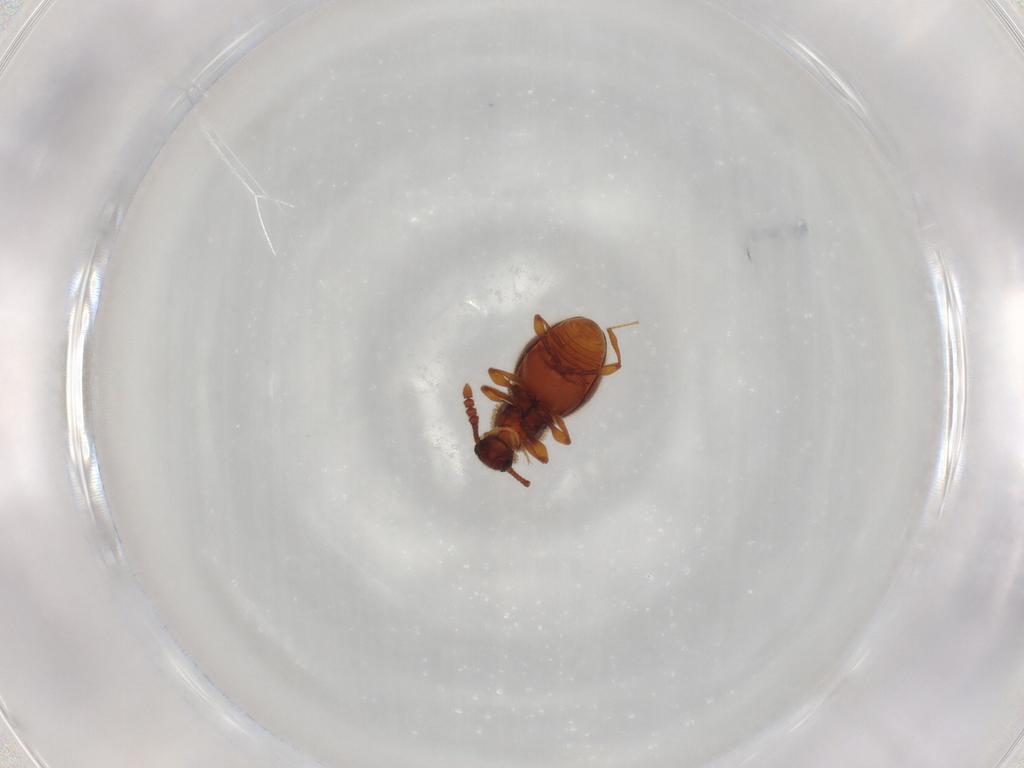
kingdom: Animalia
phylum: Arthropoda
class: Insecta
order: Coleoptera
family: Staphylinidae
